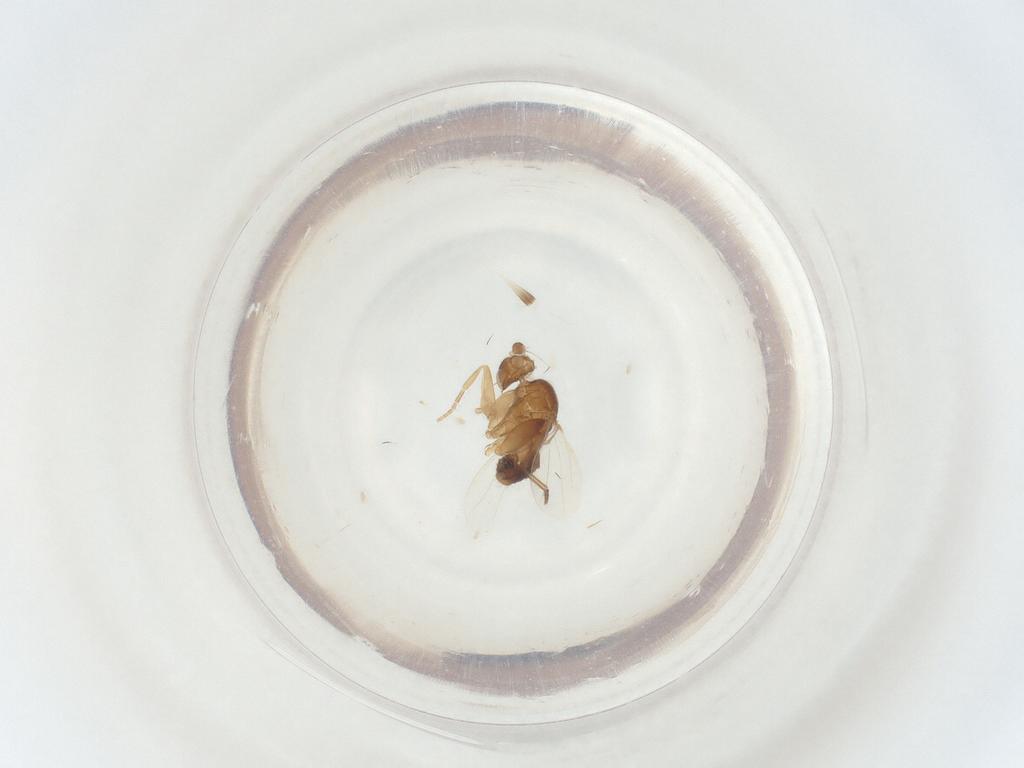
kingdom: Animalia
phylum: Arthropoda
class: Insecta
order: Diptera
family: Phoridae
